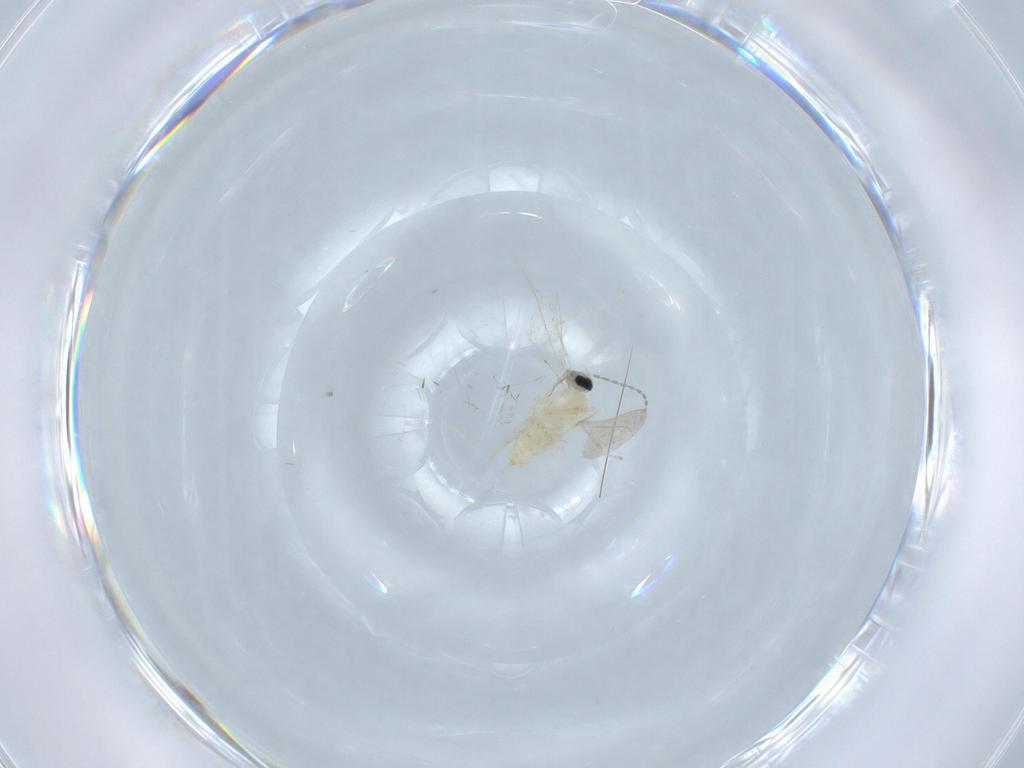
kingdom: Animalia
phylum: Arthropoda
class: Insecta
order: Diptera
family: Cecidomyiidae
